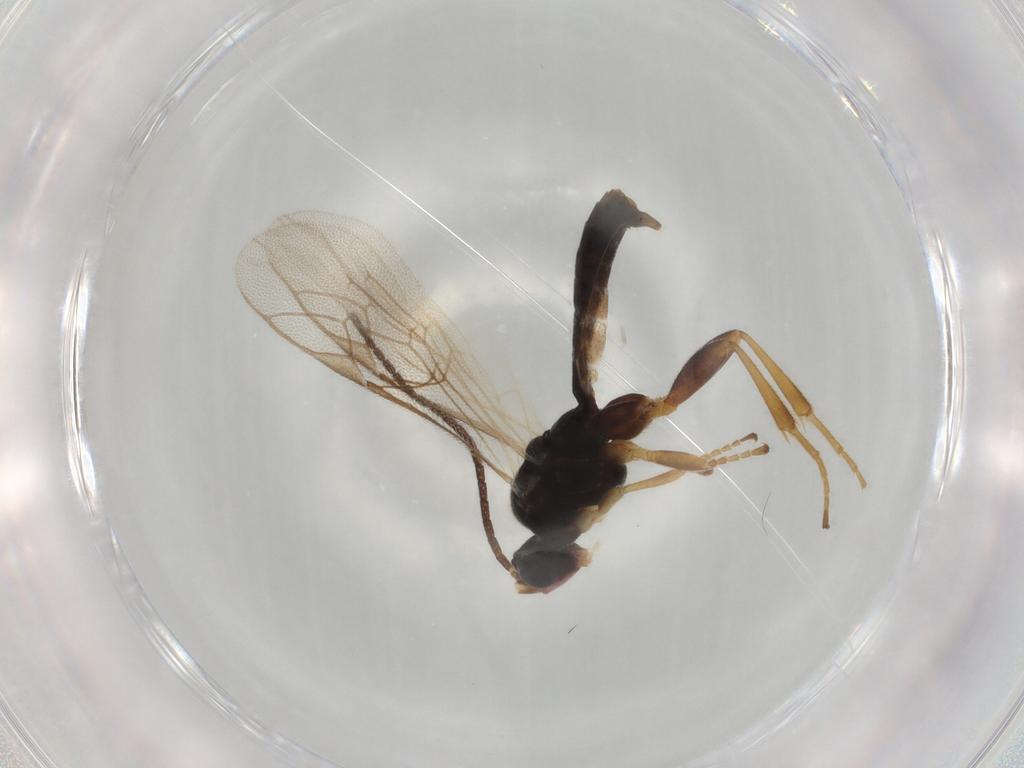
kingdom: Animalia
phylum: Arthropoda
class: Insecta
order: Hymenoptera
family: Ichneumonidae
